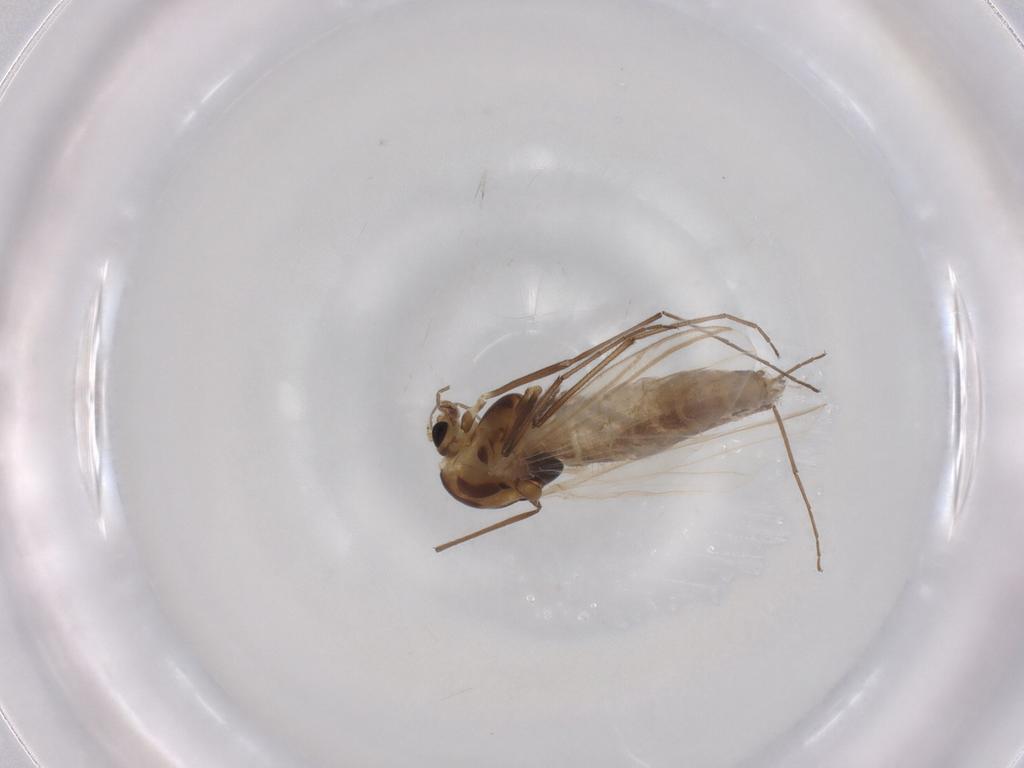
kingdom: Animalia
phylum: Arthropoda
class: Insecta
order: Diptera
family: Chironomidae
